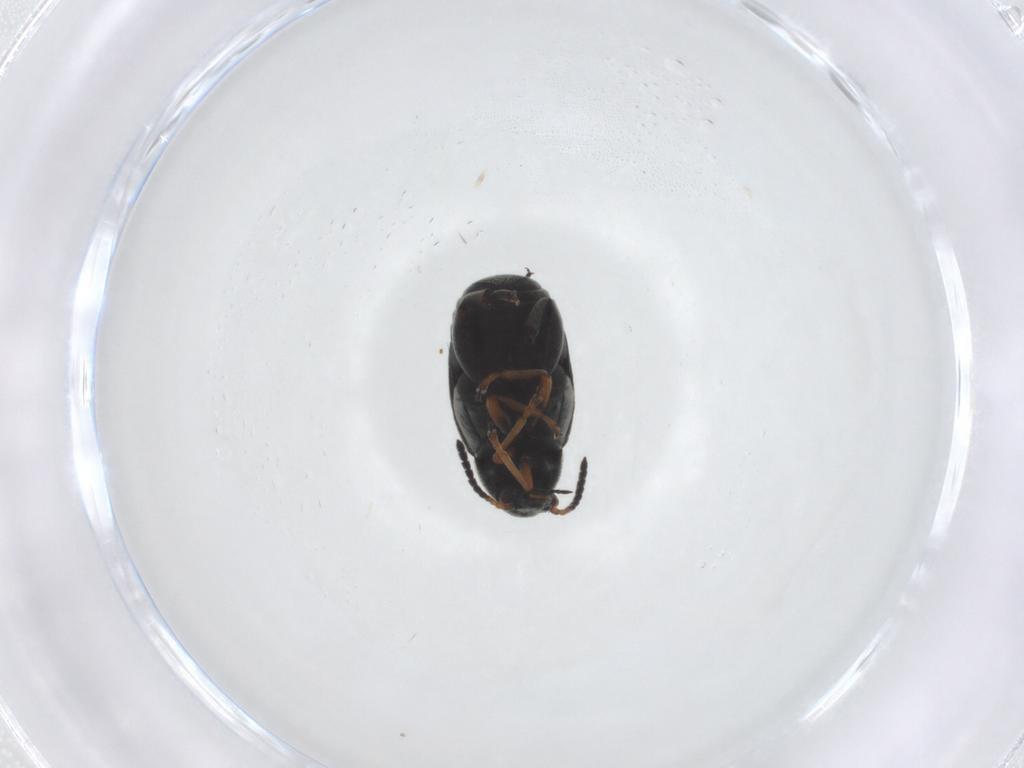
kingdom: Animalia
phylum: Arthropoda
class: Insecta
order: Coleoptera
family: Chrysomelidae
